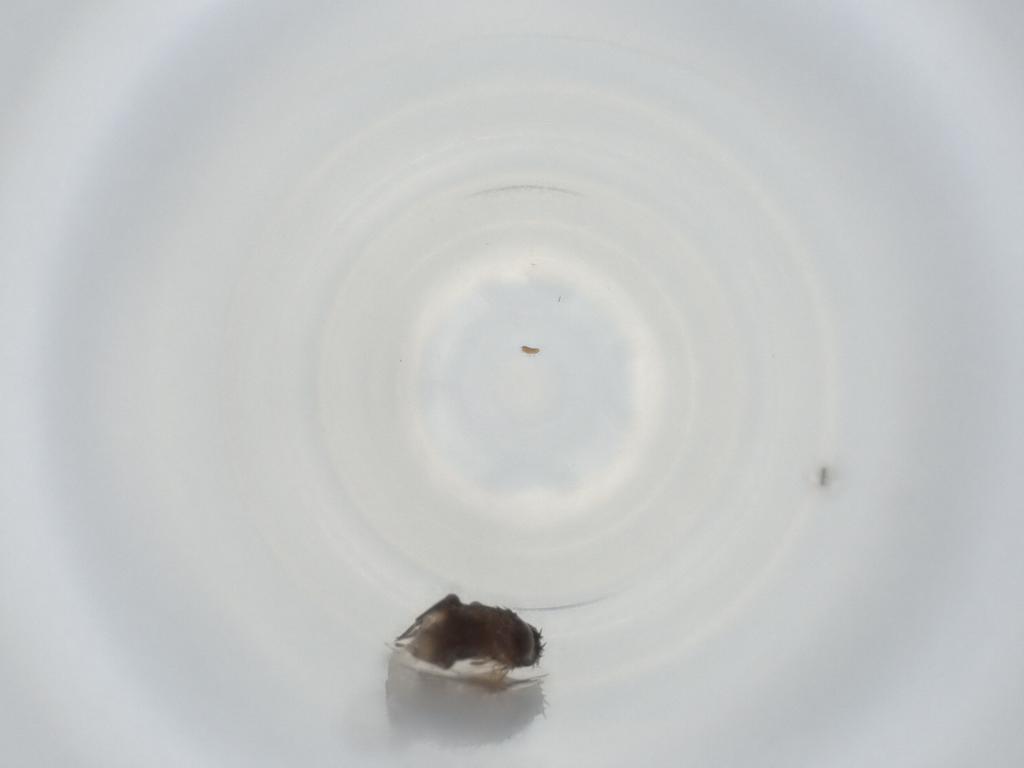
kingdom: Animalia
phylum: Arthropoda
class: Insecta
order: Diptera
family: Phoridae
